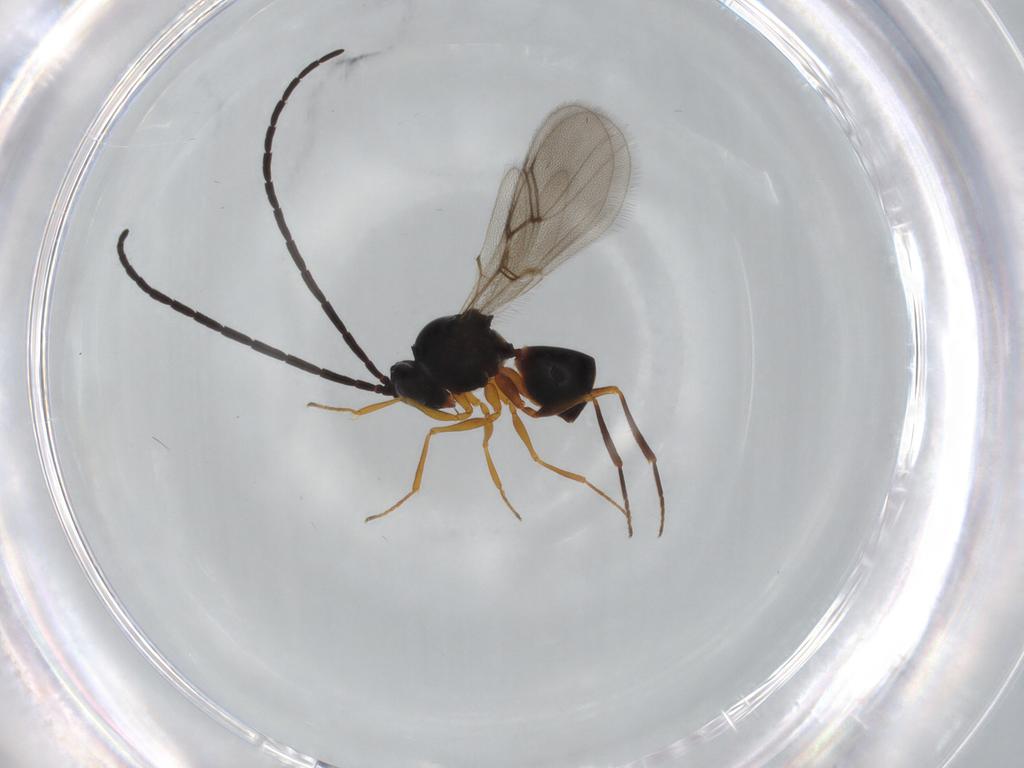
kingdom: Animalia
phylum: Arthropoda
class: Insecta
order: Hymenoptera
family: Figitidae
